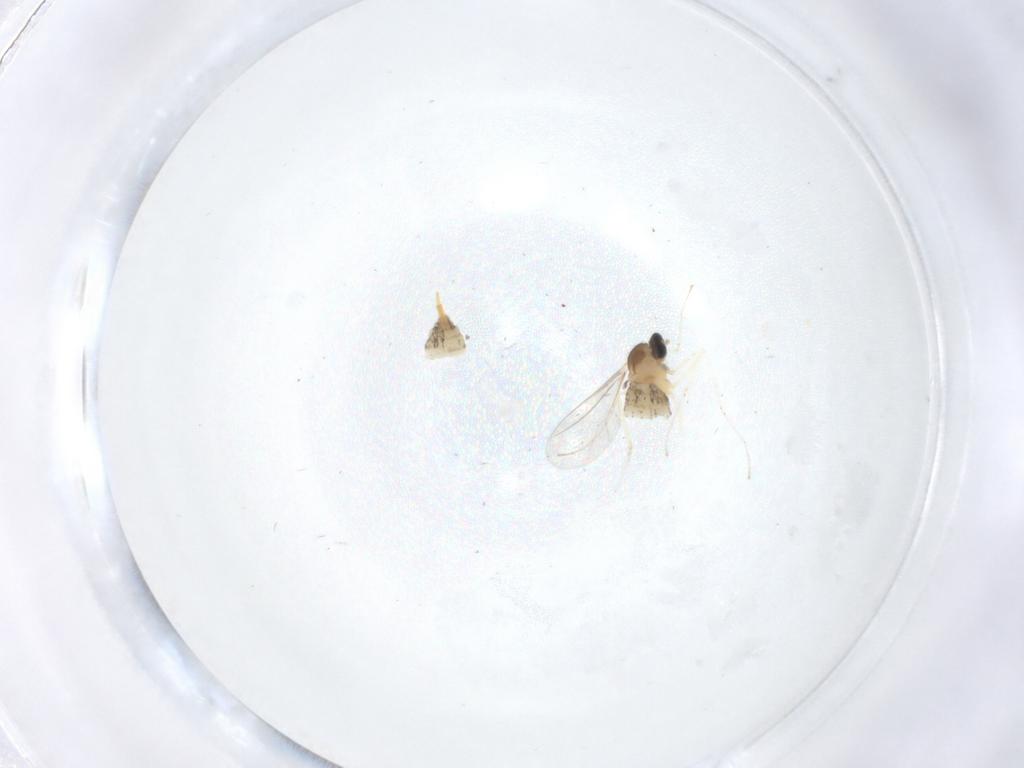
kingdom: Animalia
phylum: Arthropoda
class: Insecta
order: Diptera
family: Cecidomyiidae
